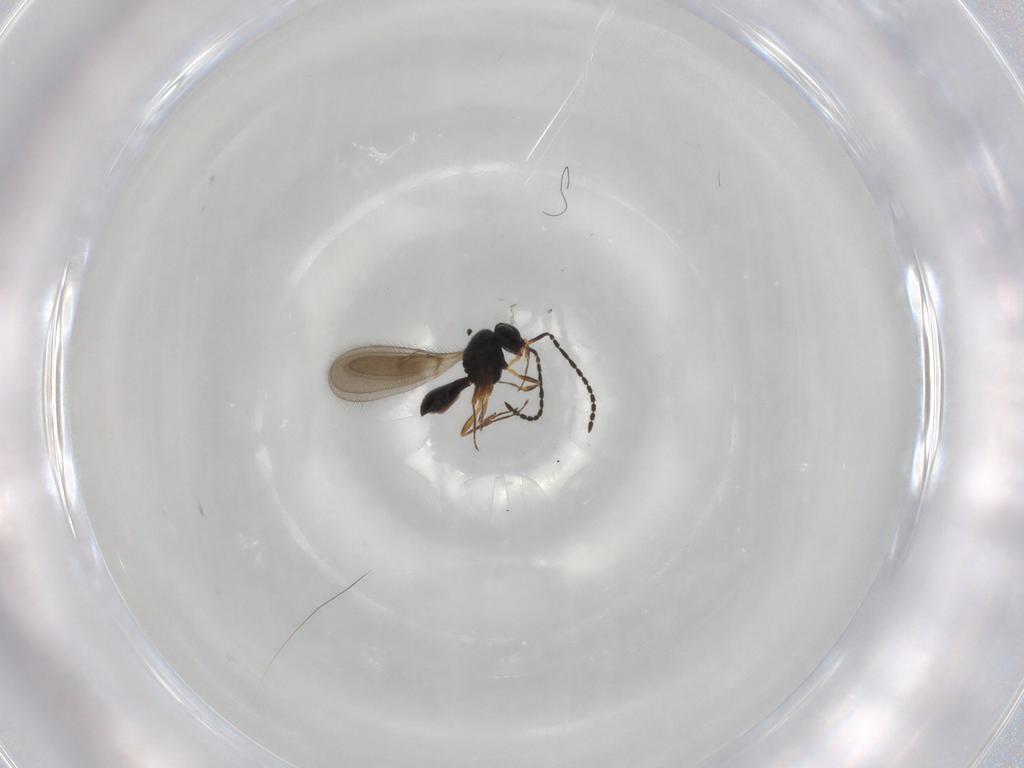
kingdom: Animalia
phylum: Arthropoda
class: Insecta
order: Hymenoptera
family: Scelionidae
